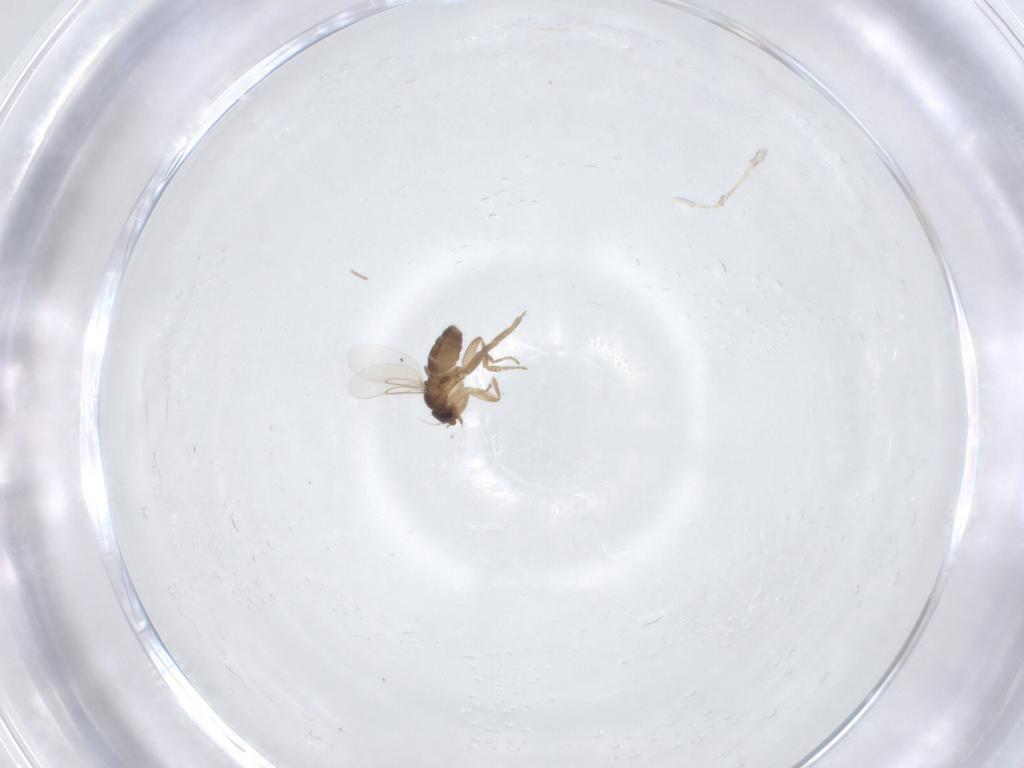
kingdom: Animalia
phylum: Arthropoda
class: Insecta
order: Diptera
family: Phoridae
